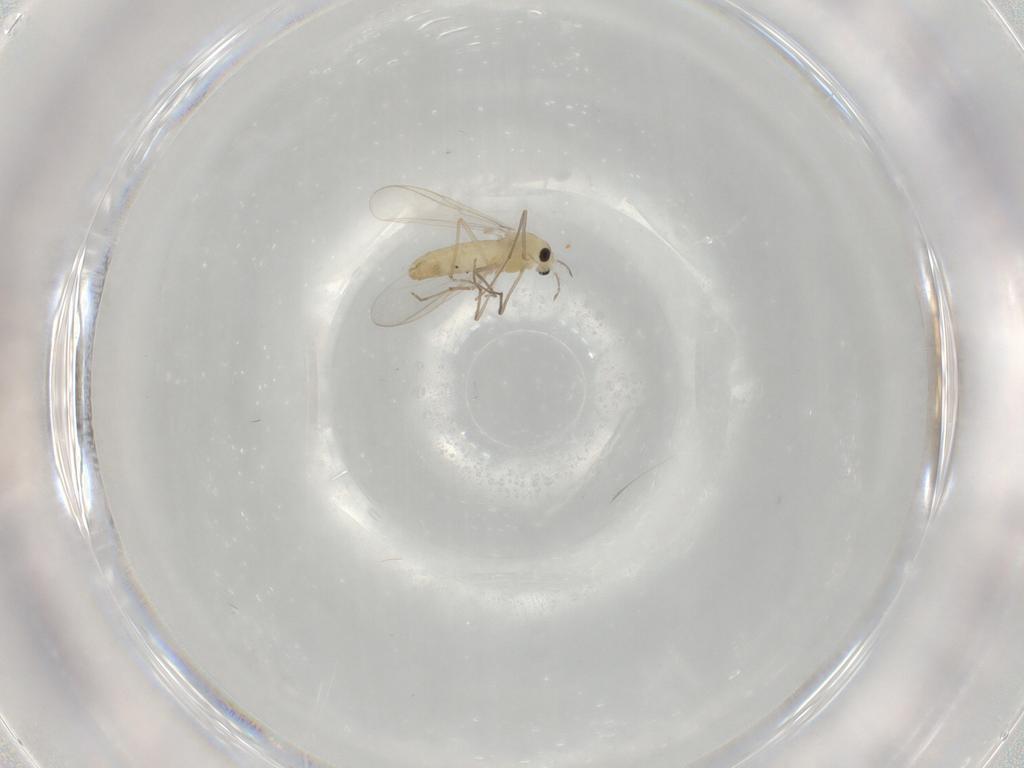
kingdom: Animalia
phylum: Arthropoda
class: Insecta
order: Diptera
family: Chironomidae
